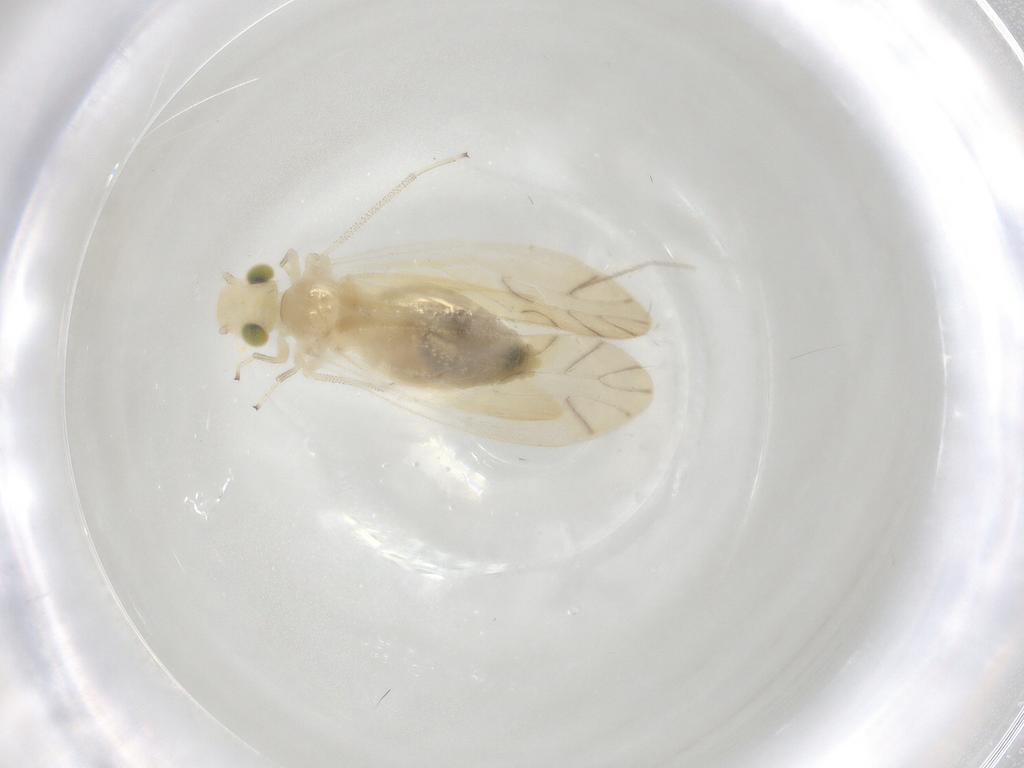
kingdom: Animalia
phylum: Arthropoda
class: Insecta
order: Psocodea
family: Caeciliusidae
